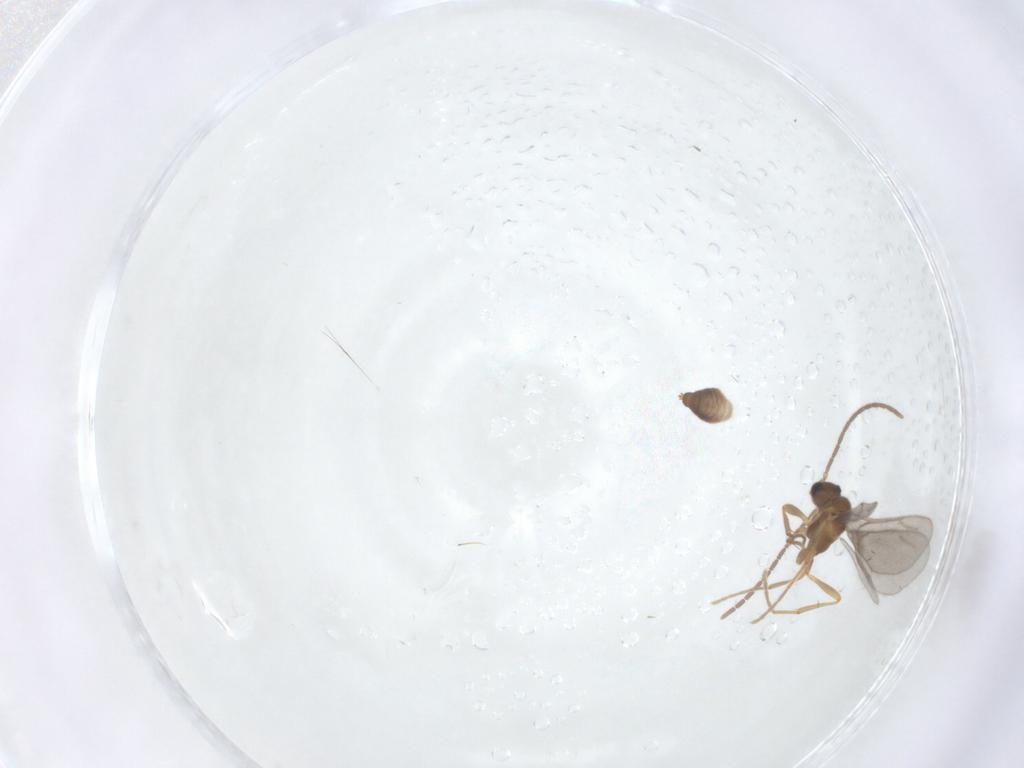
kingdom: Animalia
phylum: Arthropoda
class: Insecta
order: Hymenoptera
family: Formicidae
